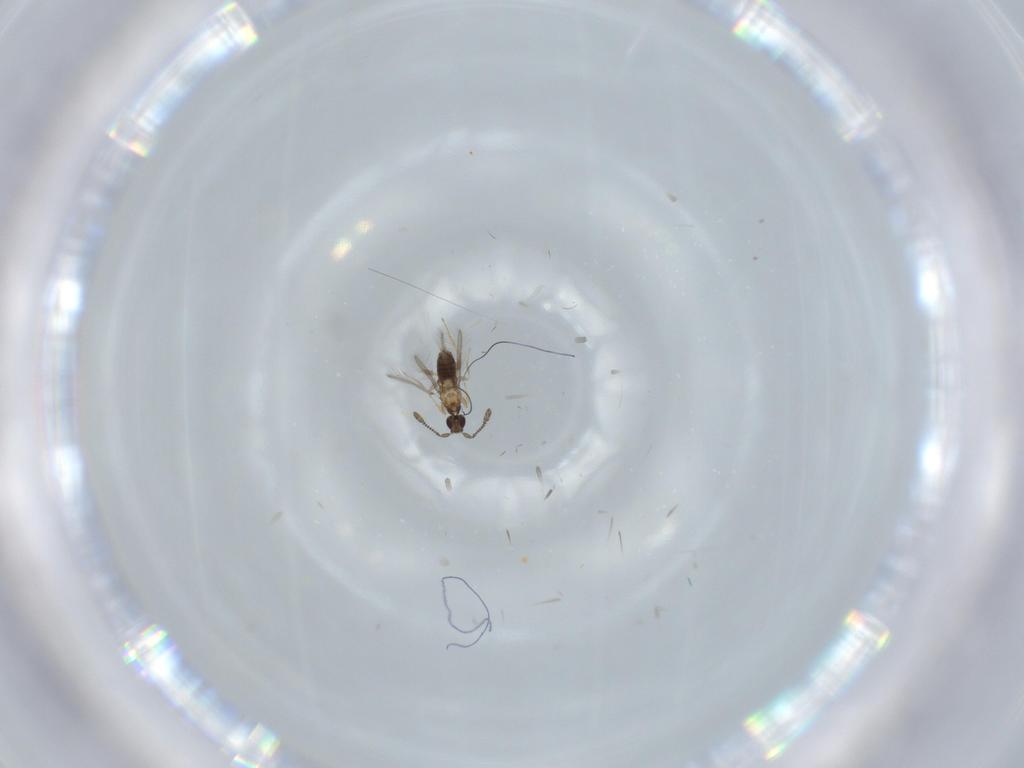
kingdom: Animalia
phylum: Arthropoda
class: Insecta
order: Hymenoptera
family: Mymaridae
